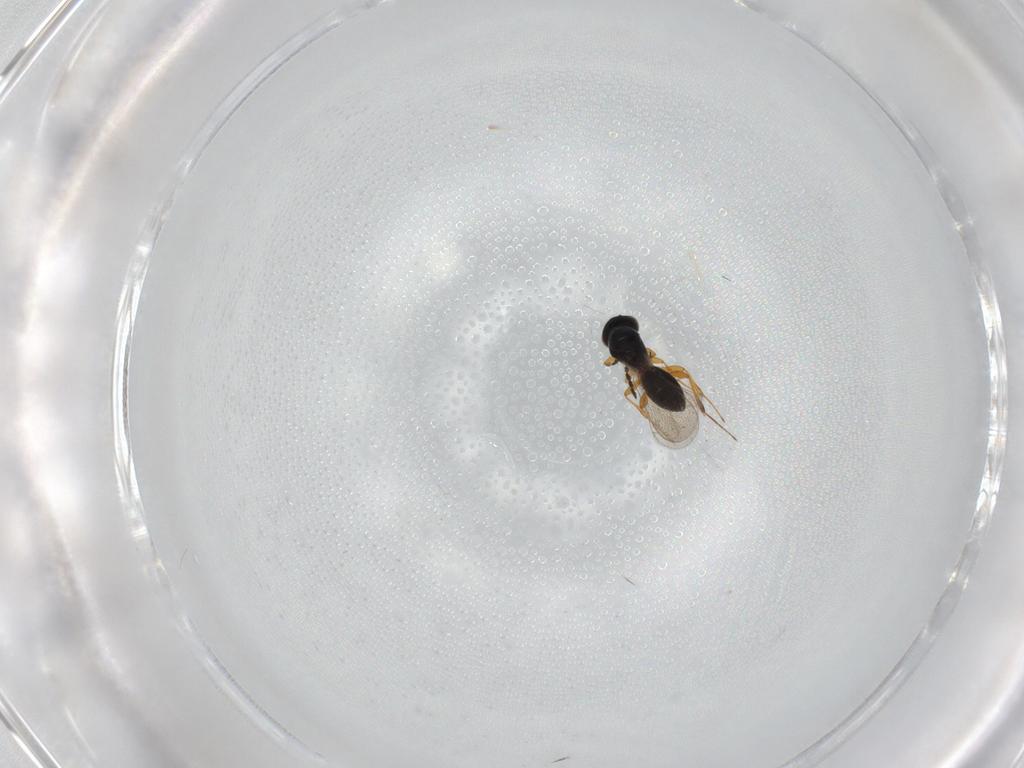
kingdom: Animalia
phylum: Arthropoda
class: Insecta
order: Hymenoptera
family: Platygastridae
